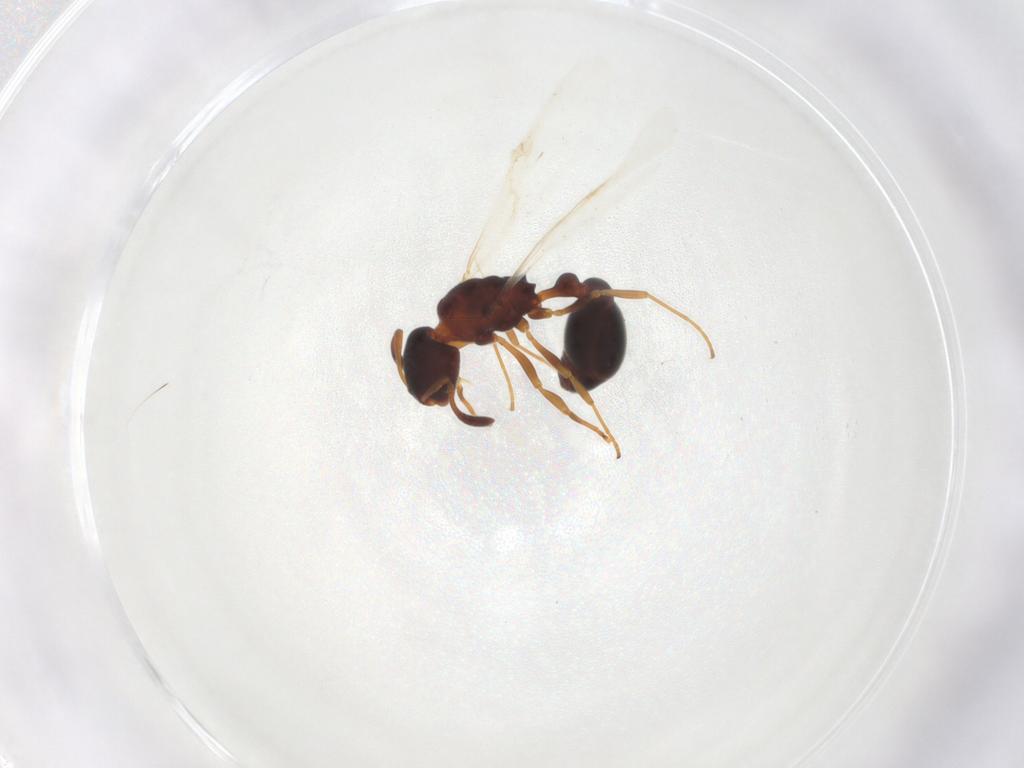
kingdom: Animalia
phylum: Arthropoda
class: Insecta
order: Hymenoptera
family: Formicidae
